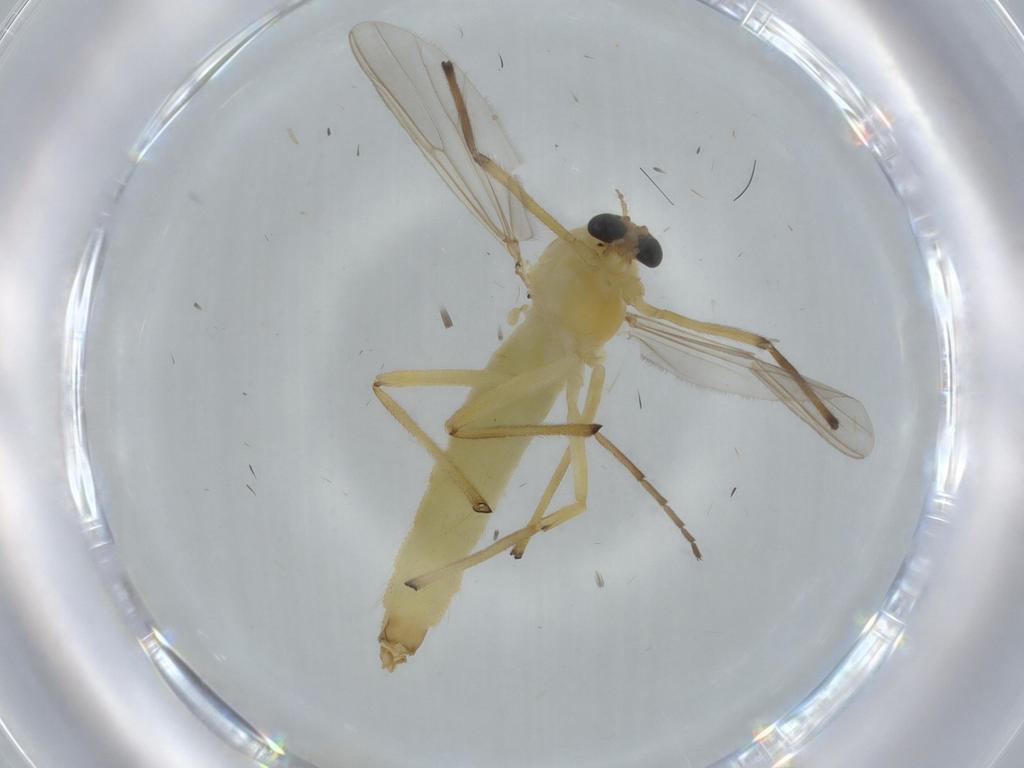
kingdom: Animalia
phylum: Arthropoda
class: Insecta
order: Diptera
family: Chironomidae
